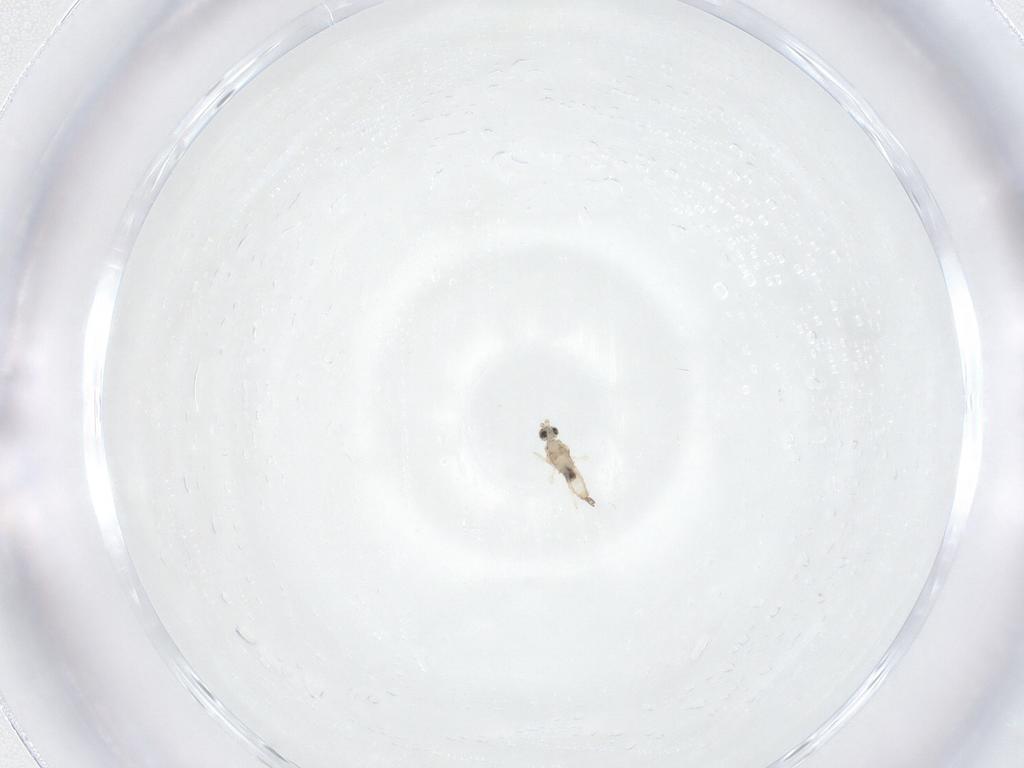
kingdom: Animalia
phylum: Arthropoda
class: Insecta
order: Diptera
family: Cecidomyiidae
